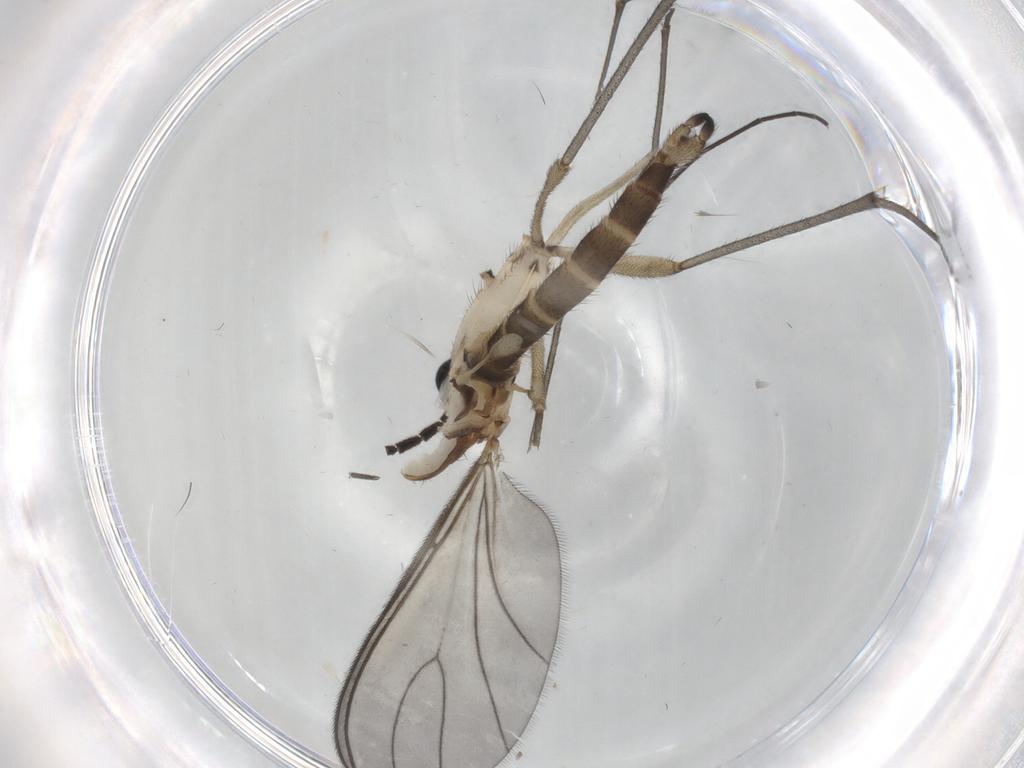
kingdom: Animalia
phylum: Arthropoda
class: Insecta
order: Diptera
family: Sciaridae
